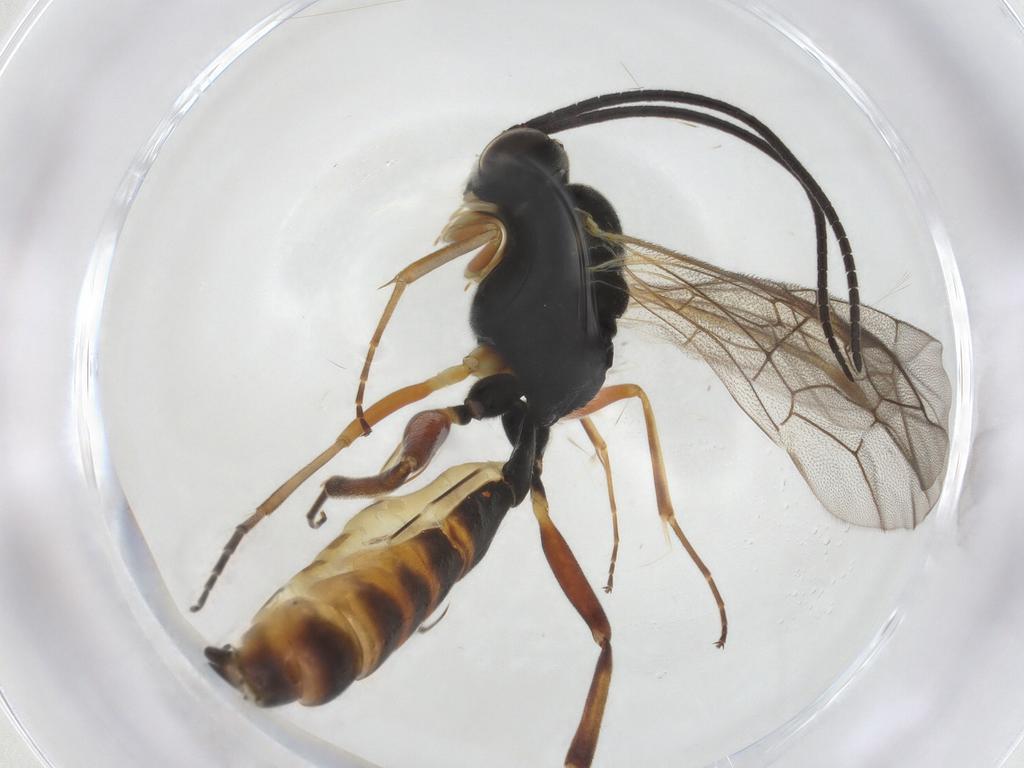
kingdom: Animalia
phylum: Arthropoda
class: Insecta
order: Hymenoptera
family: Ichneumonidae
